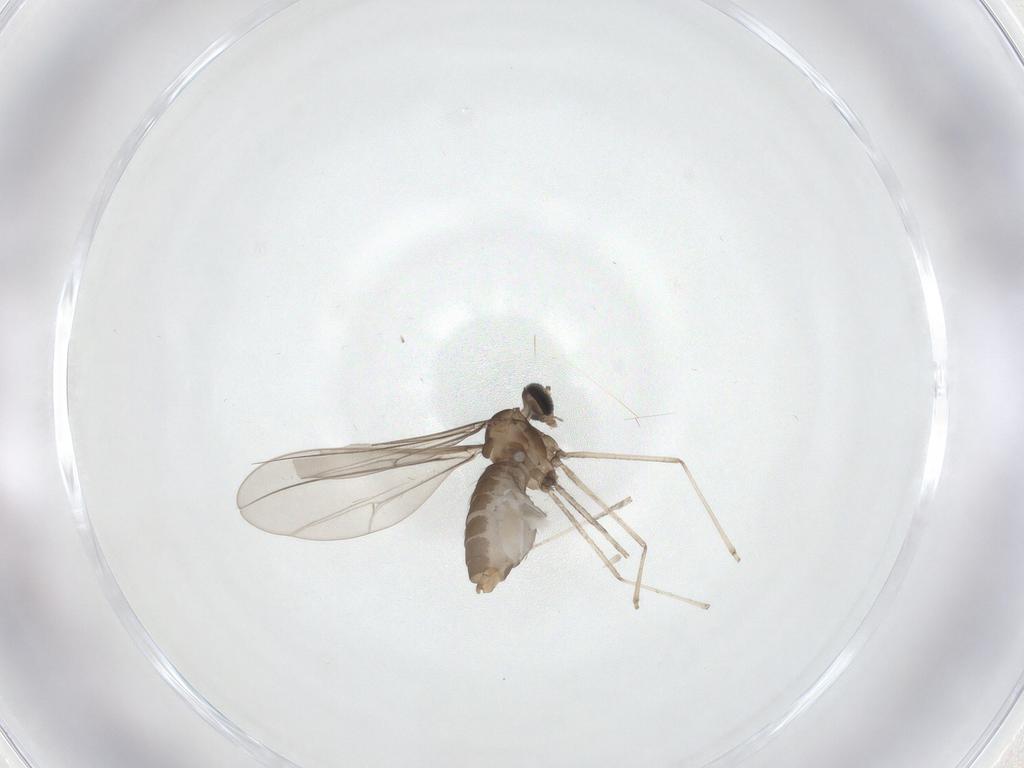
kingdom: Animalia
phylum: Arthropoda
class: Insecta
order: Diptera
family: Cecidomyiidae
